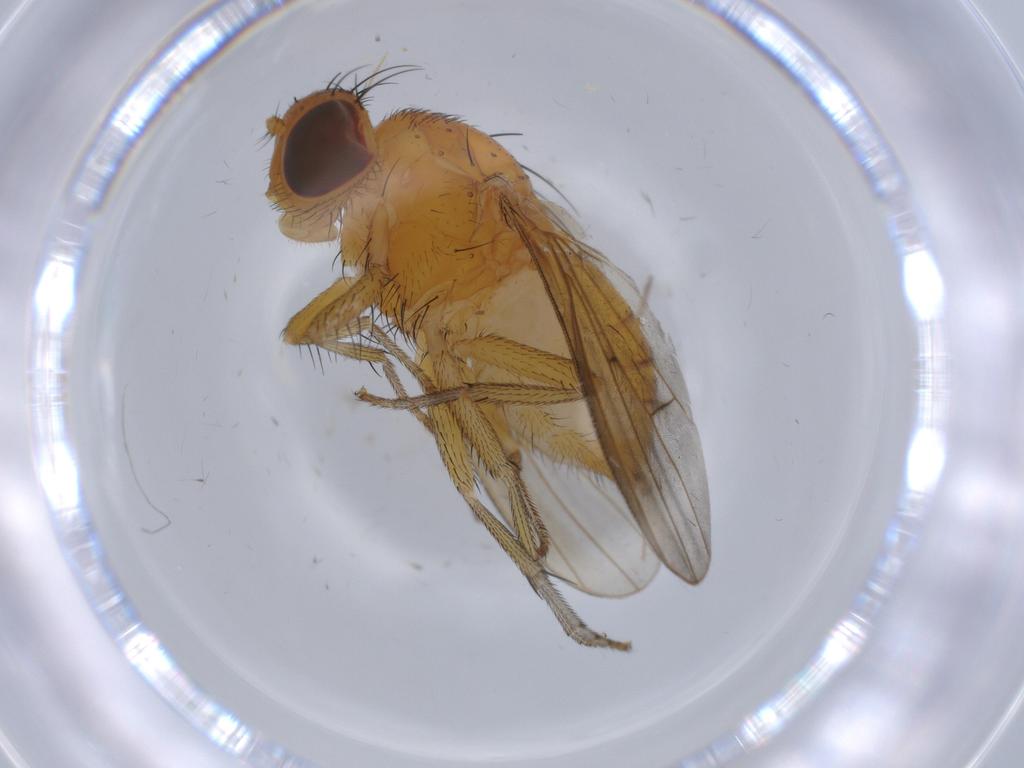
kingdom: Animalia
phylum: Arthropoda
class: Insecta
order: Diptera
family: Chironomidae
